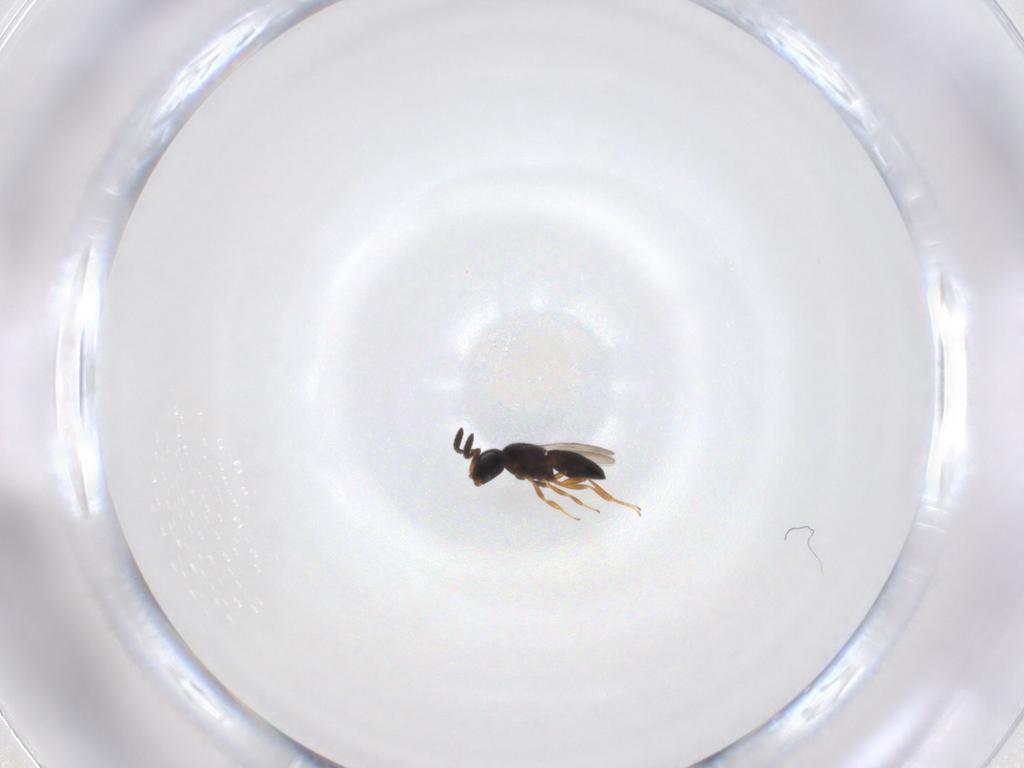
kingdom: Animalia
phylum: Arthropoda
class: Insecta
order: Hymenoptera
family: Scelionidae
